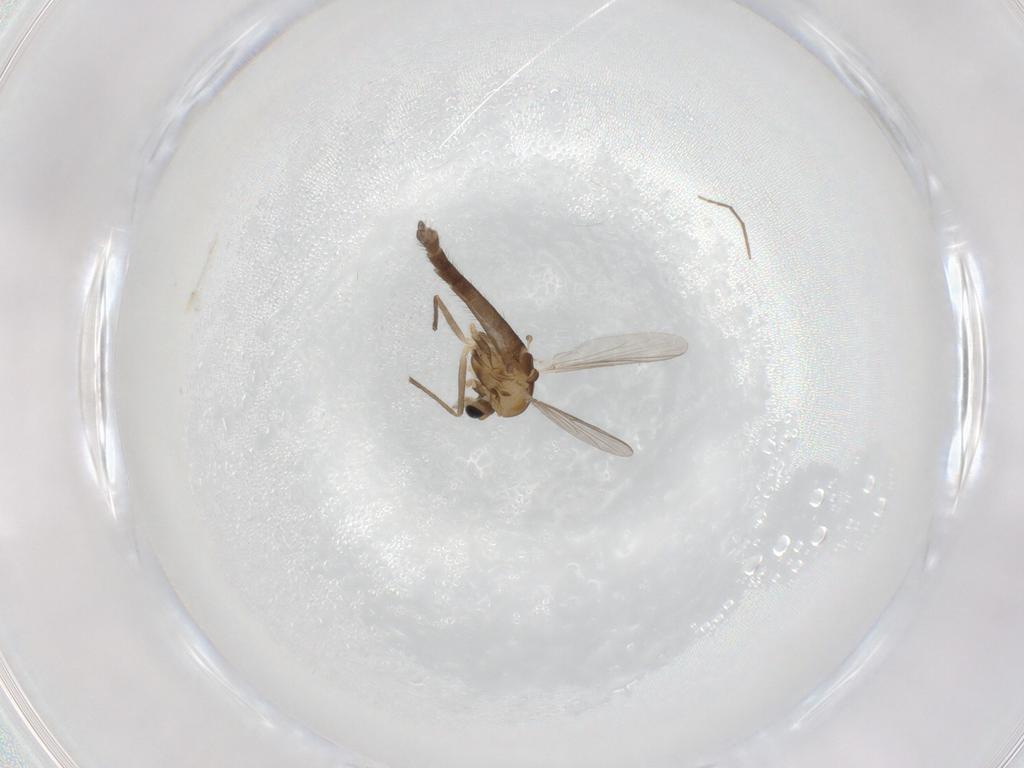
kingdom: Animalia
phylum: Arthropoda
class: Insecta
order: Diptera
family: Chironomidae
